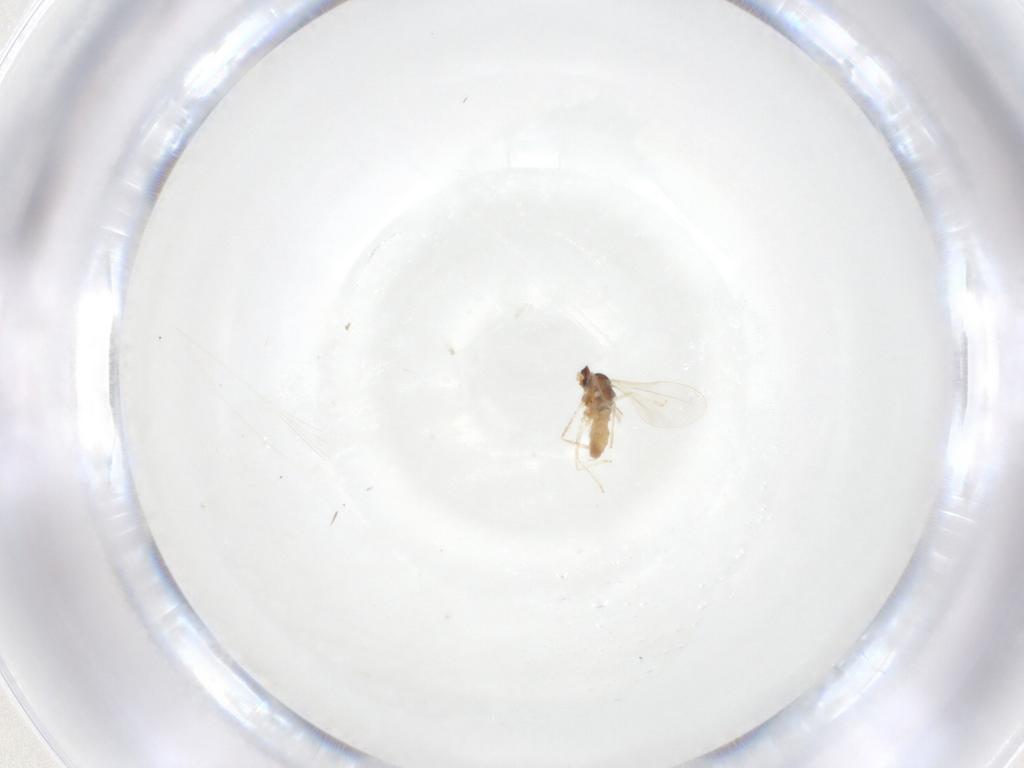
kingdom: Animalia
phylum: Arthropoda
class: Insecta
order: Diptera
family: Cecidomyiidae
